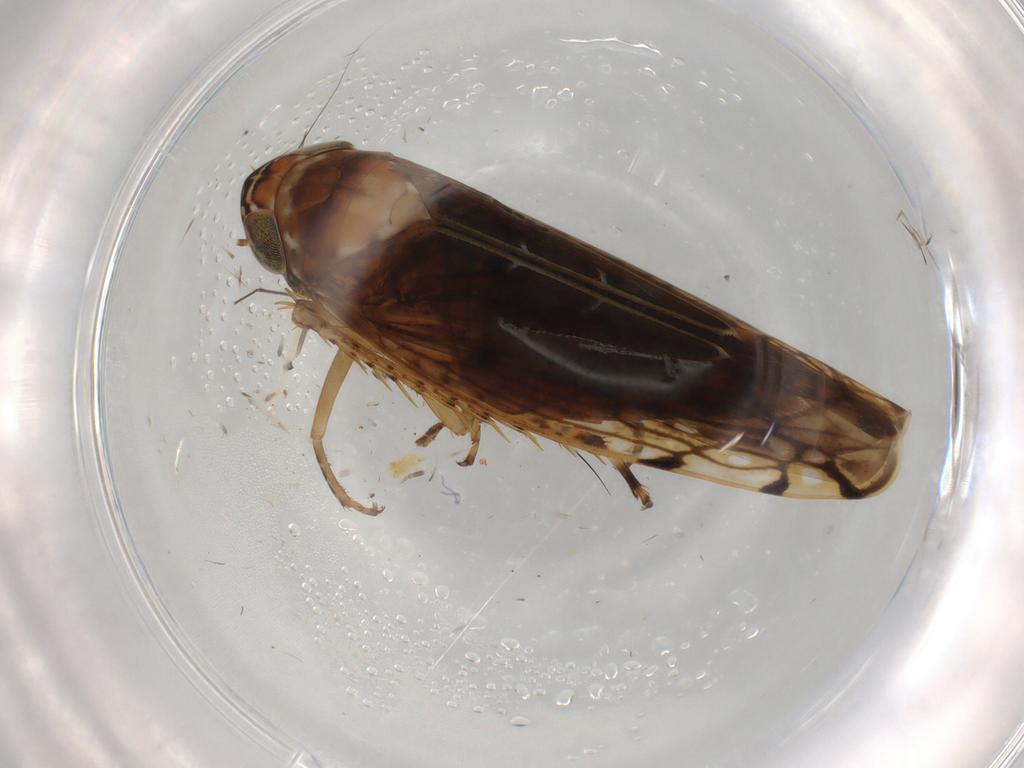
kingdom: Animalia
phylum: Arthropoda
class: Insecta
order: Hemiptera
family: Cicadellidae
